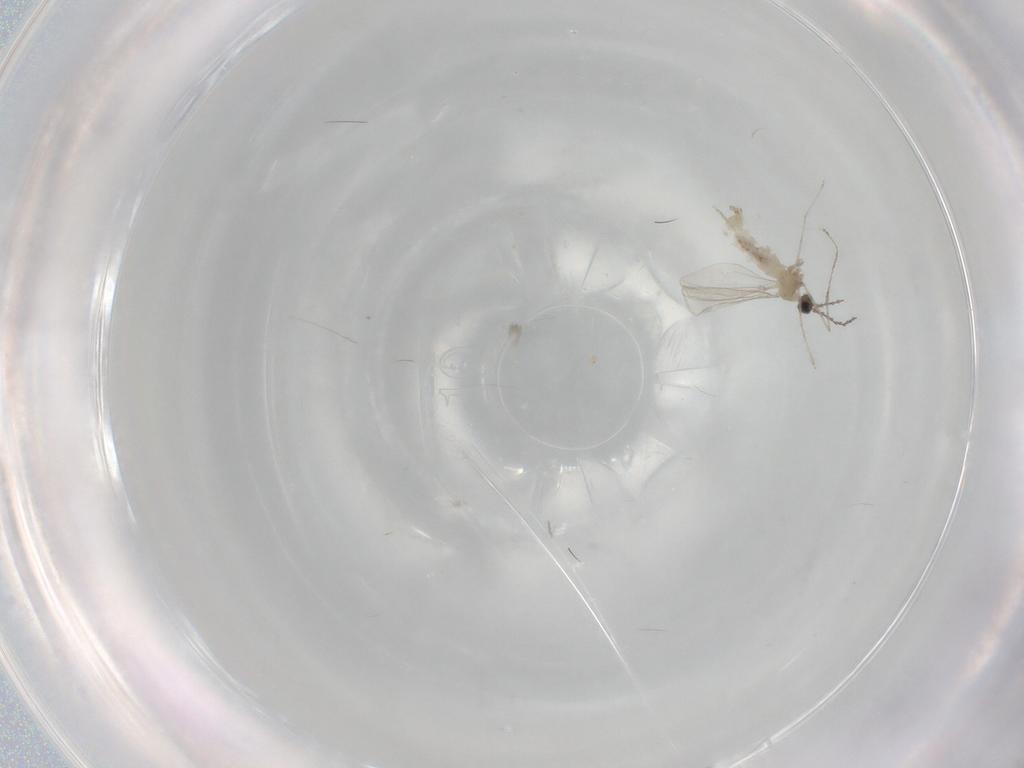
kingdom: Animalia
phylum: Arthropoda
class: Insecta
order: Diptera
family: Cecidomyiidae
